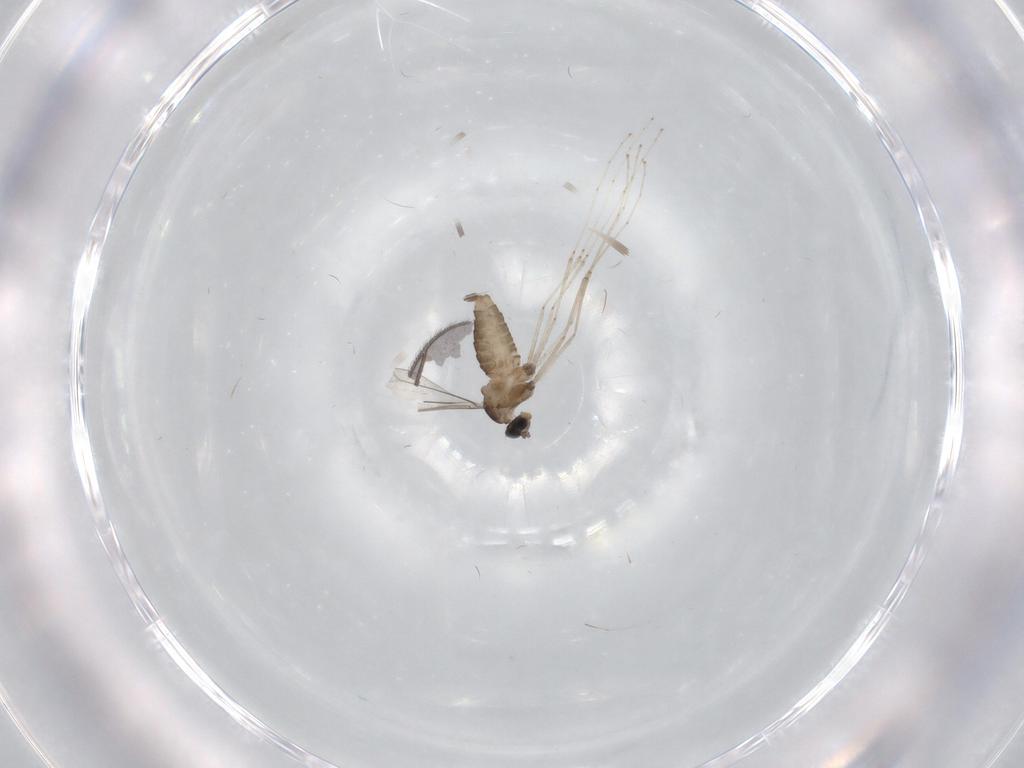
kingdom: Animalia
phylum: Arthropoda
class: Insecta
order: Diptera
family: Cecidomyiidae
